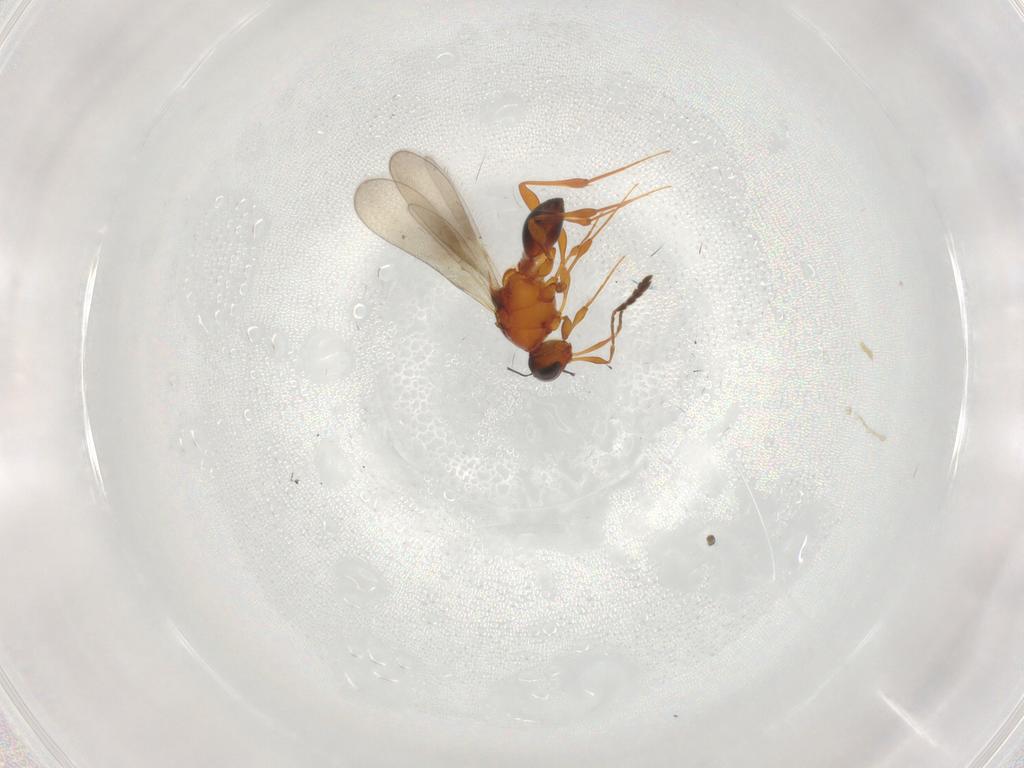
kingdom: Animalia
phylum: Arthropoda
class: Insecta
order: Hymenoptera
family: Platygastridae
